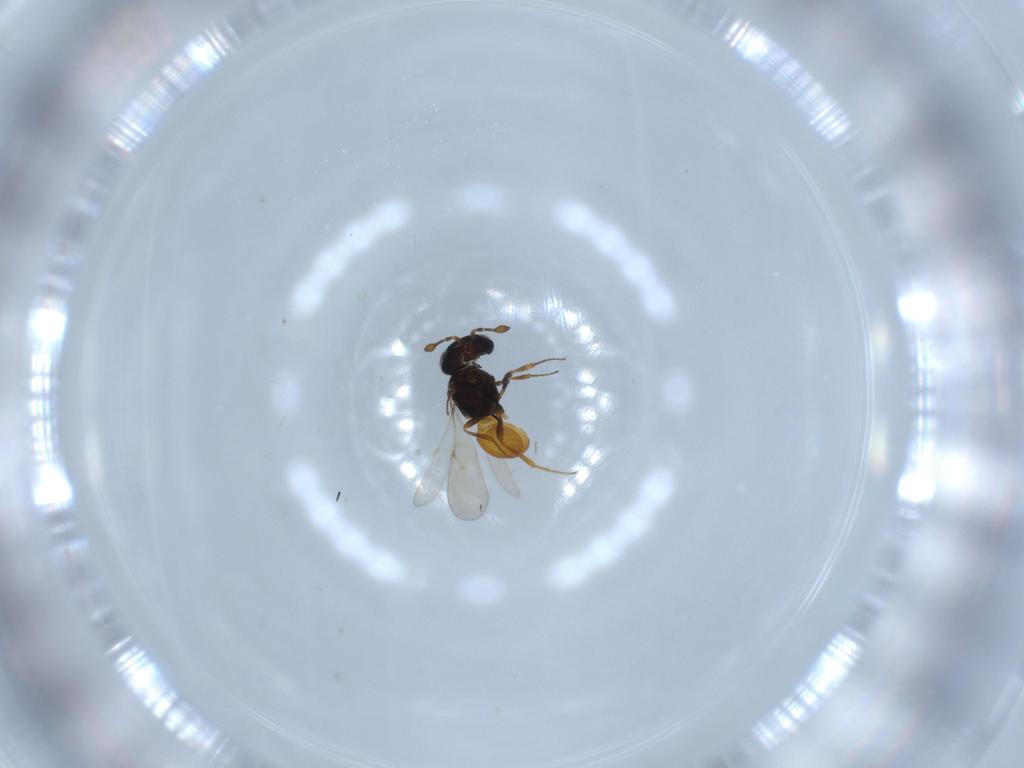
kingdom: Animalia
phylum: Arthropoda
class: Insecta
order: Hymenoptera
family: Scelionidae
